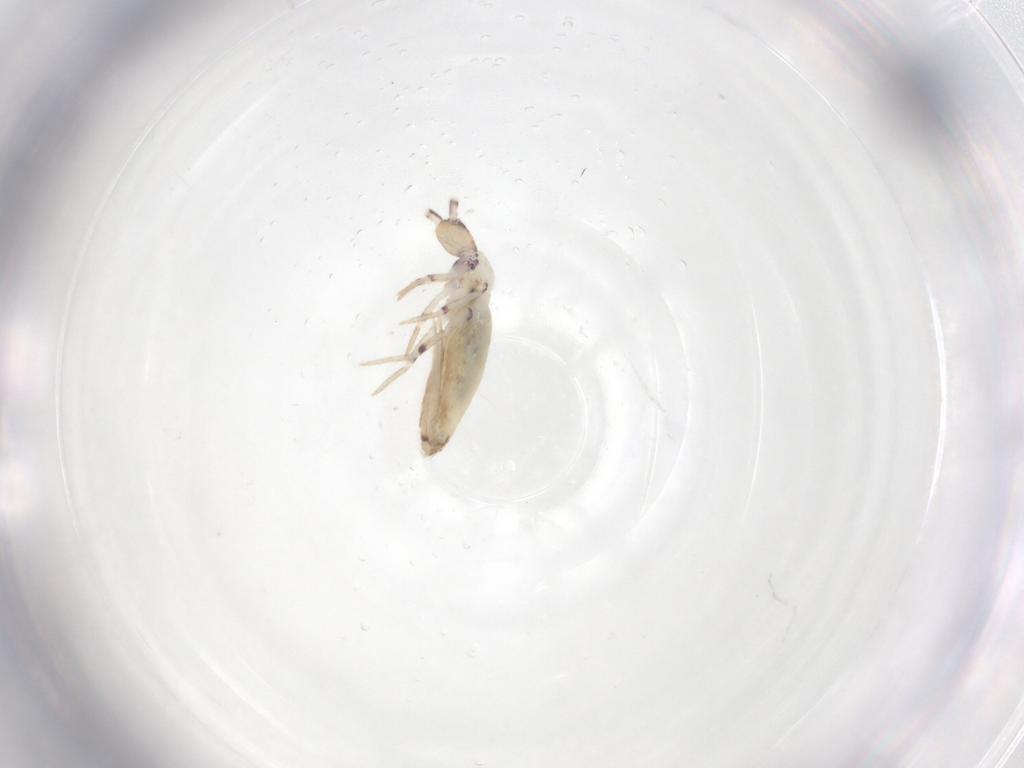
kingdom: Animalia
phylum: Arthropoda
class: Collembola
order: Entomobryomorpha
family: Entomobryidae
